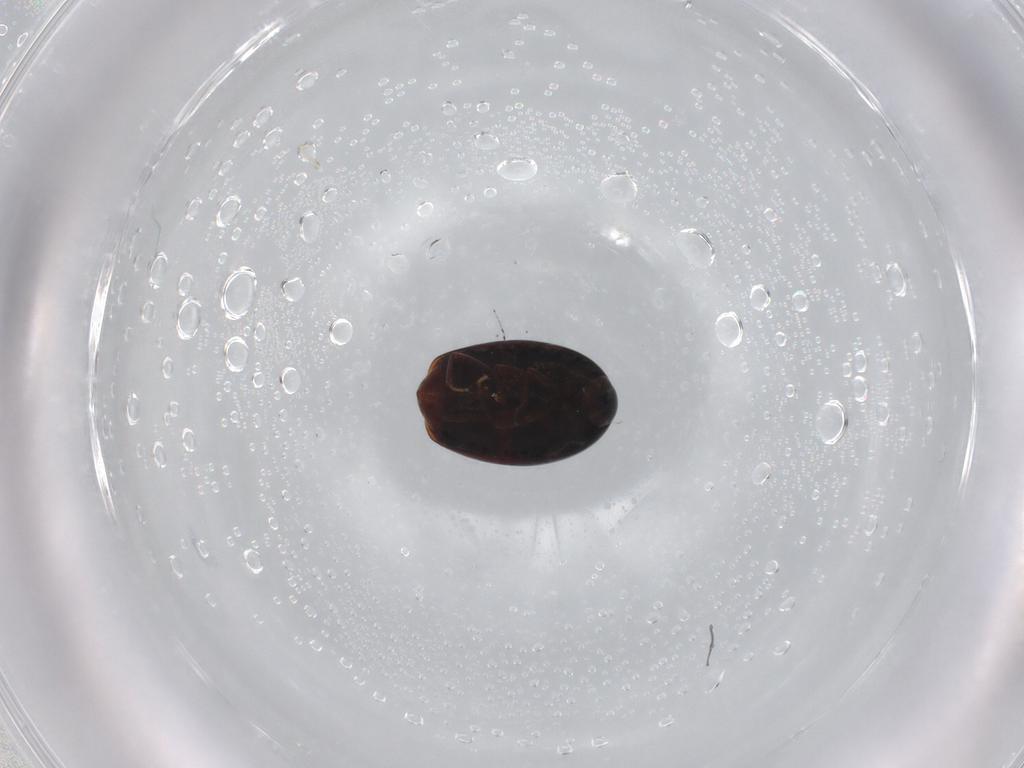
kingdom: Animalia
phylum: Arthropoda
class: Insecta
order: Coleoptera
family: Staphylinidae
